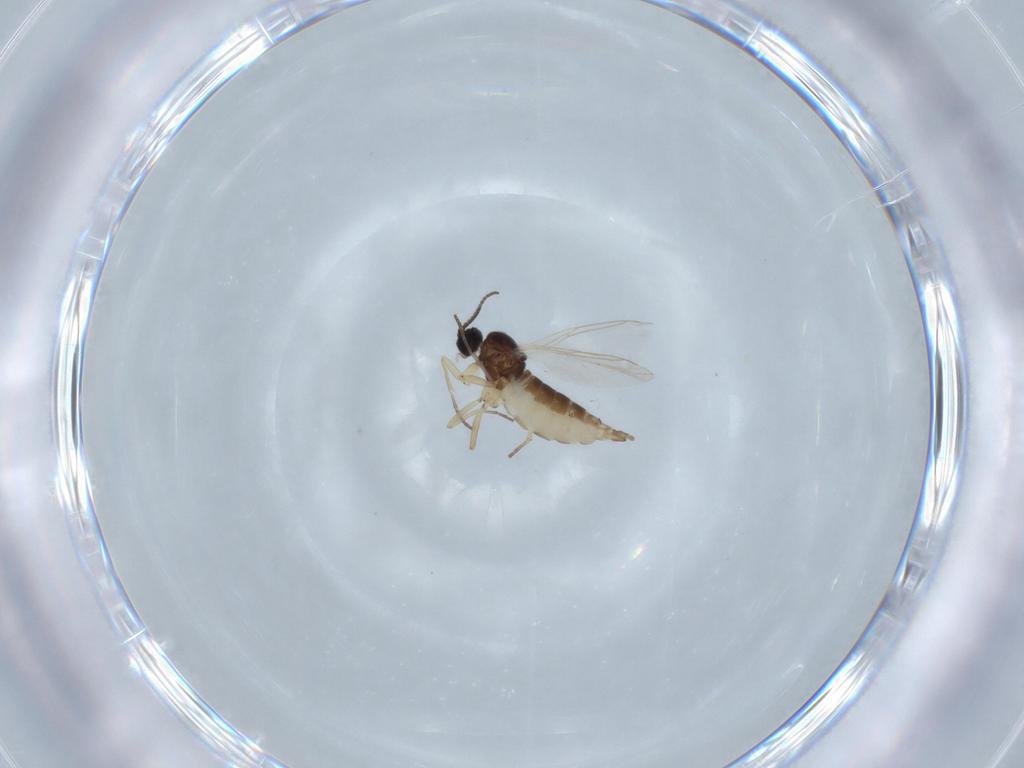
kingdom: Animalia
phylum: Arthropoda
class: Insecta
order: Diptera
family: Sciaridae
